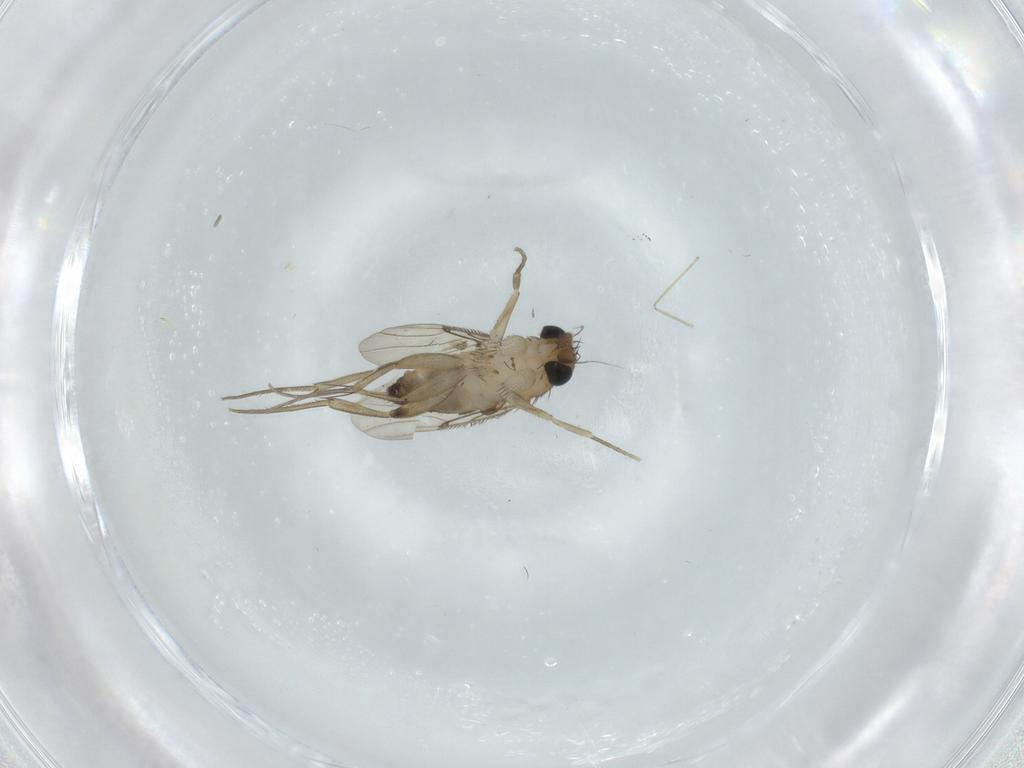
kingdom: Animalia
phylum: Arthropoda
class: Insecta
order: Diptera
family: Phoridae
